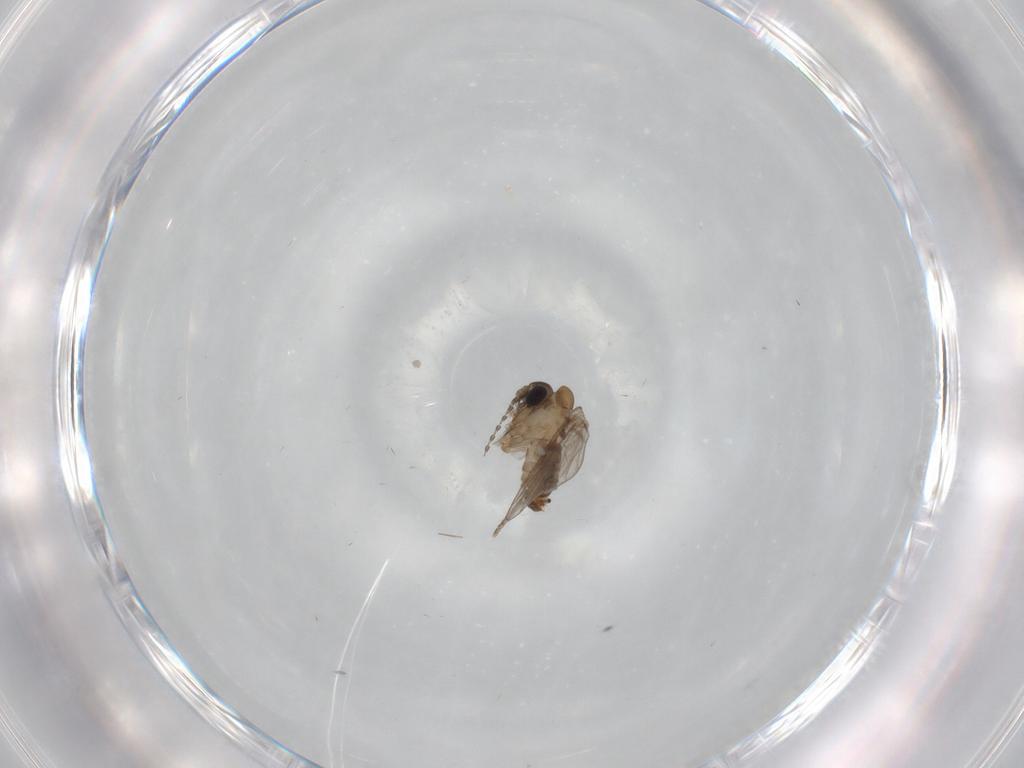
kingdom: Animalia
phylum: Arthropoda
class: Insecta
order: Diptera
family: Psychodidae
